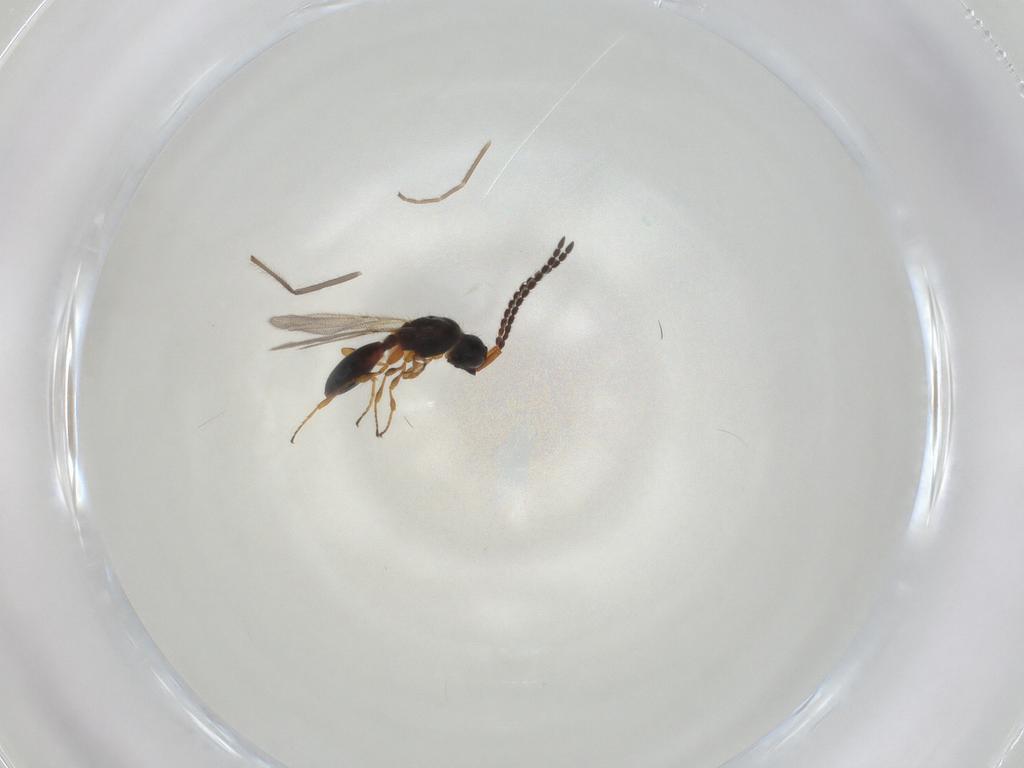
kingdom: Animalia
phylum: Arthropoda
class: Insecta
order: Hymenoptera
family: Diapriidae
